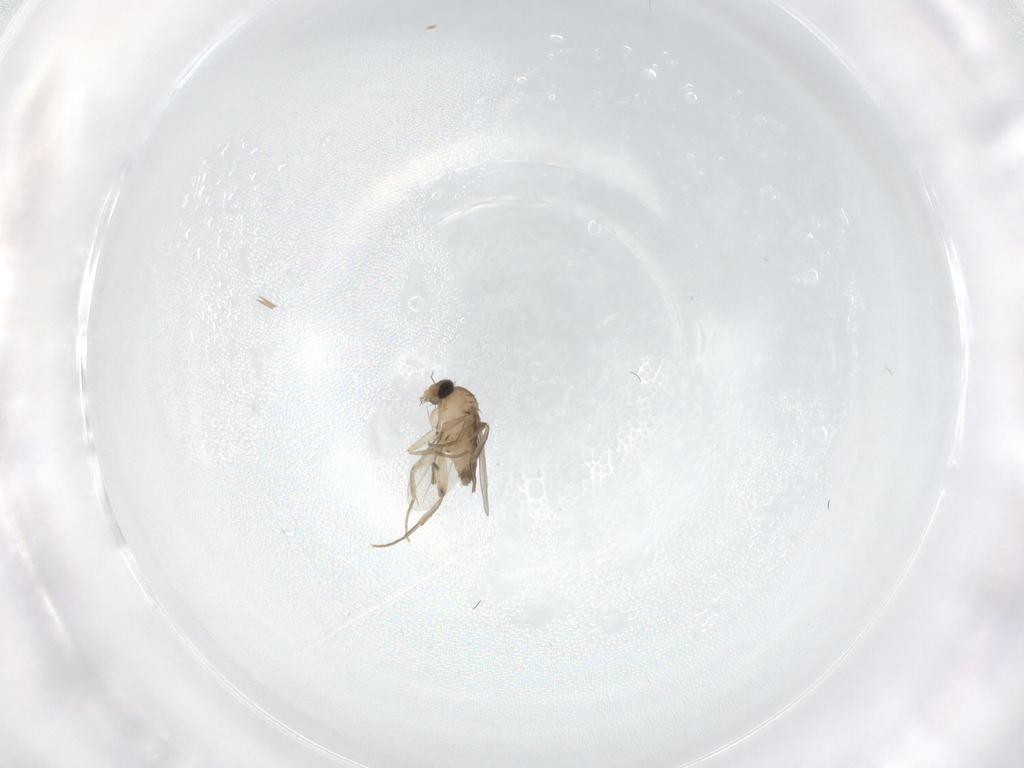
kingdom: Animalia
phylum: Arthropoda
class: Insecta
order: Diptera
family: Phoridae
